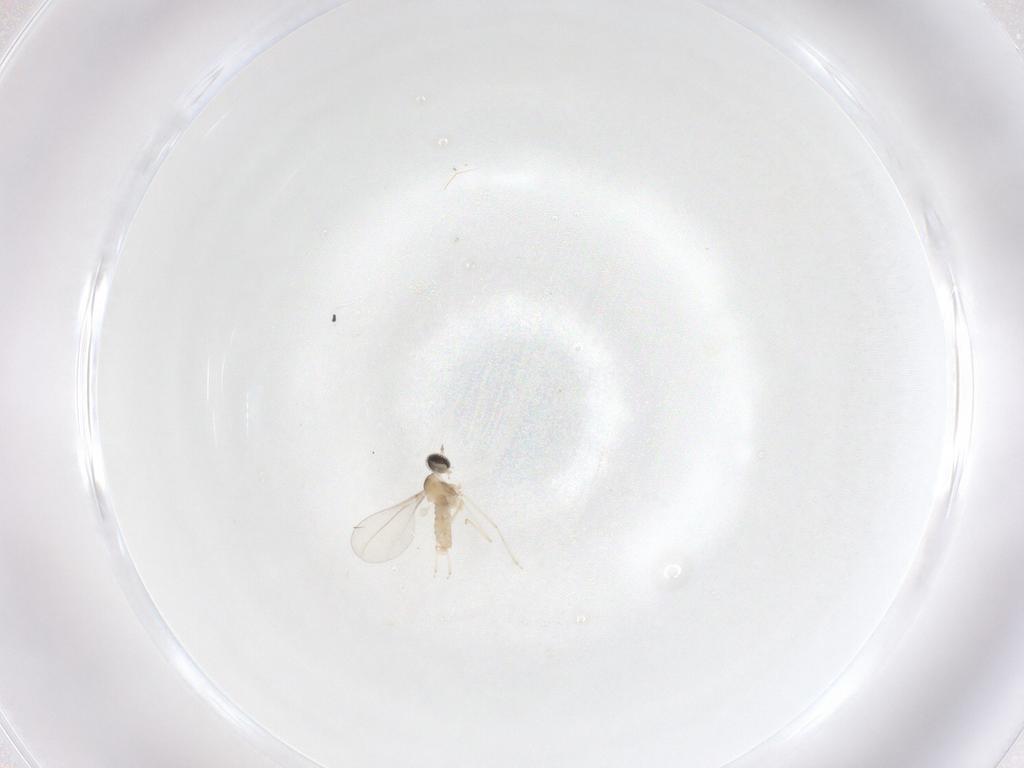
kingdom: Animalia
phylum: Arthropoda
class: Insecta
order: Diptera
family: Cecidomyiidae
